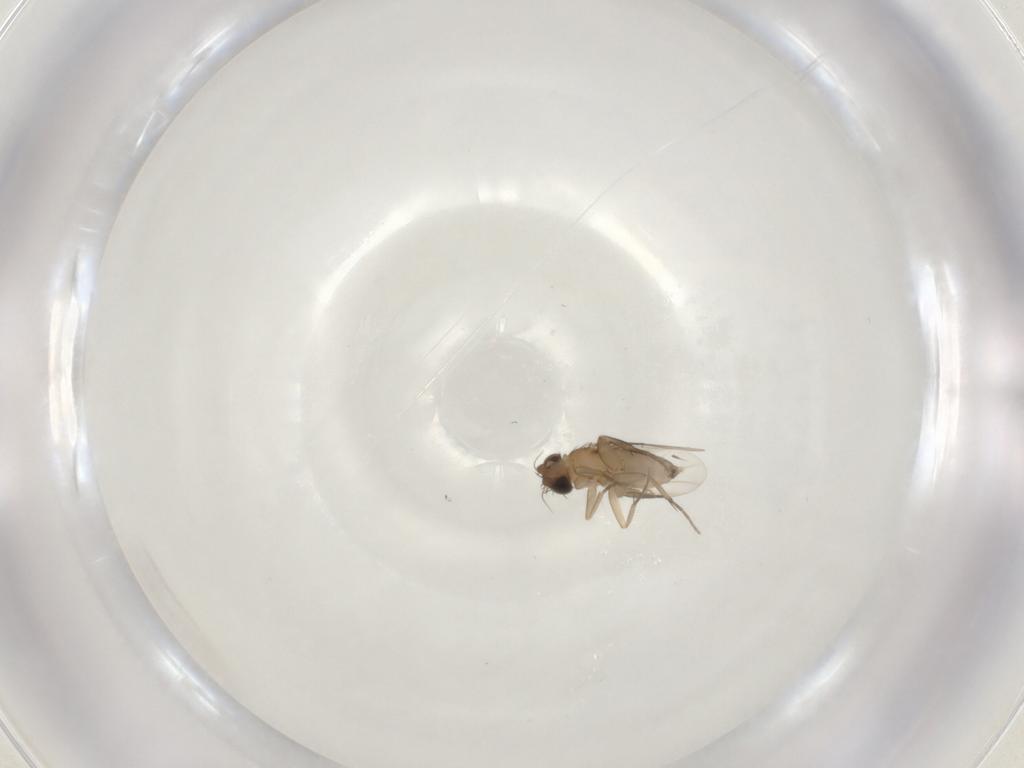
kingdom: Animalia
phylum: Arthropoda
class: Insecta
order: Diptera
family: Phoridae
